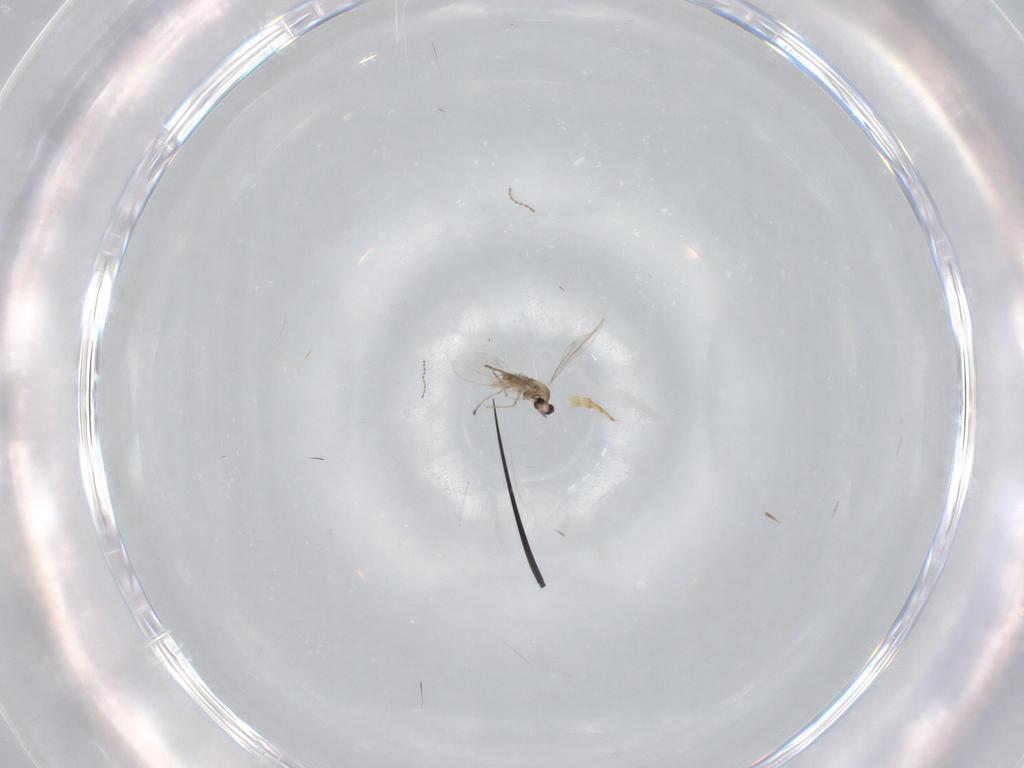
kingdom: Animalia
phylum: Arthropoda
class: Insecta
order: Diptera
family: Cecidomyiidae
